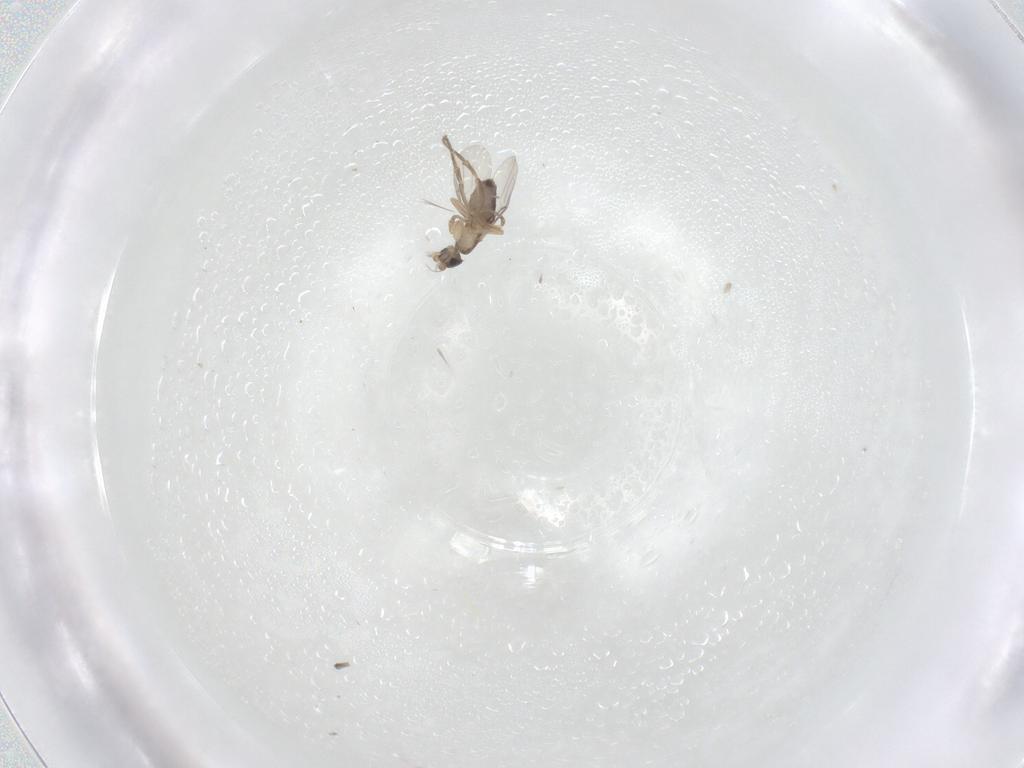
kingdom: Animalia
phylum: Arthropoda
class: Insecta
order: Diptera
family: Phoridae
